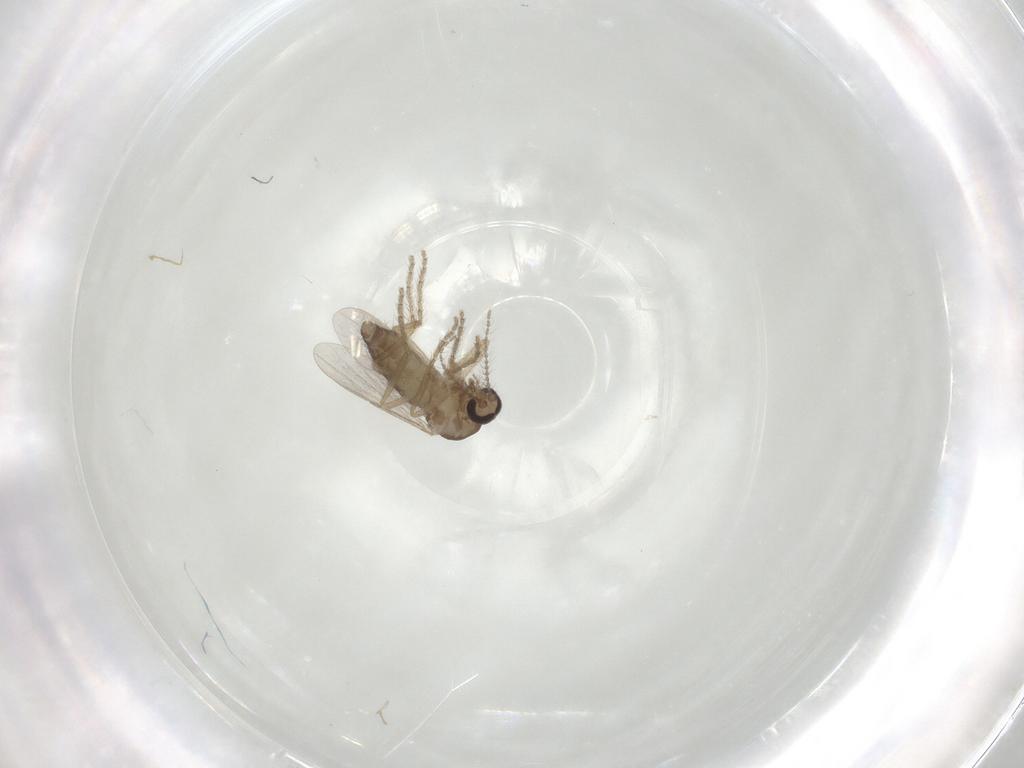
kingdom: Animalia
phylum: Arthropoda
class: Insecta
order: Diptera
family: Ceratopogonidae
